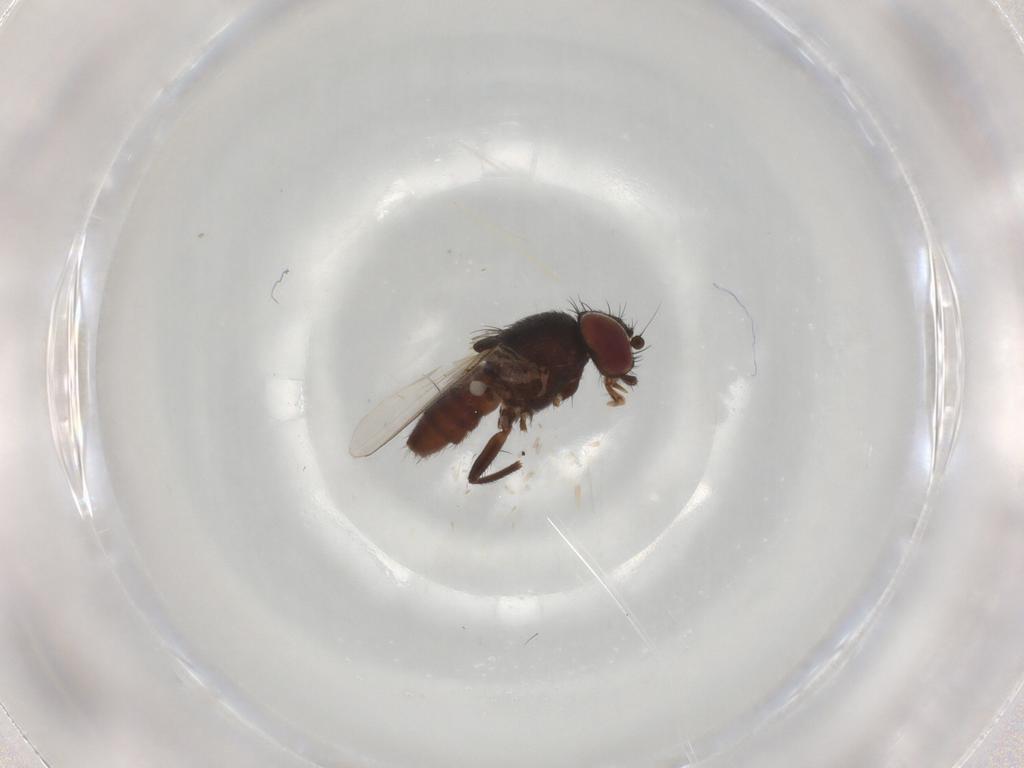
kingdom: Animalia
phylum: Arthropoda
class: Insecta
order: Diptera
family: Milichiidae
